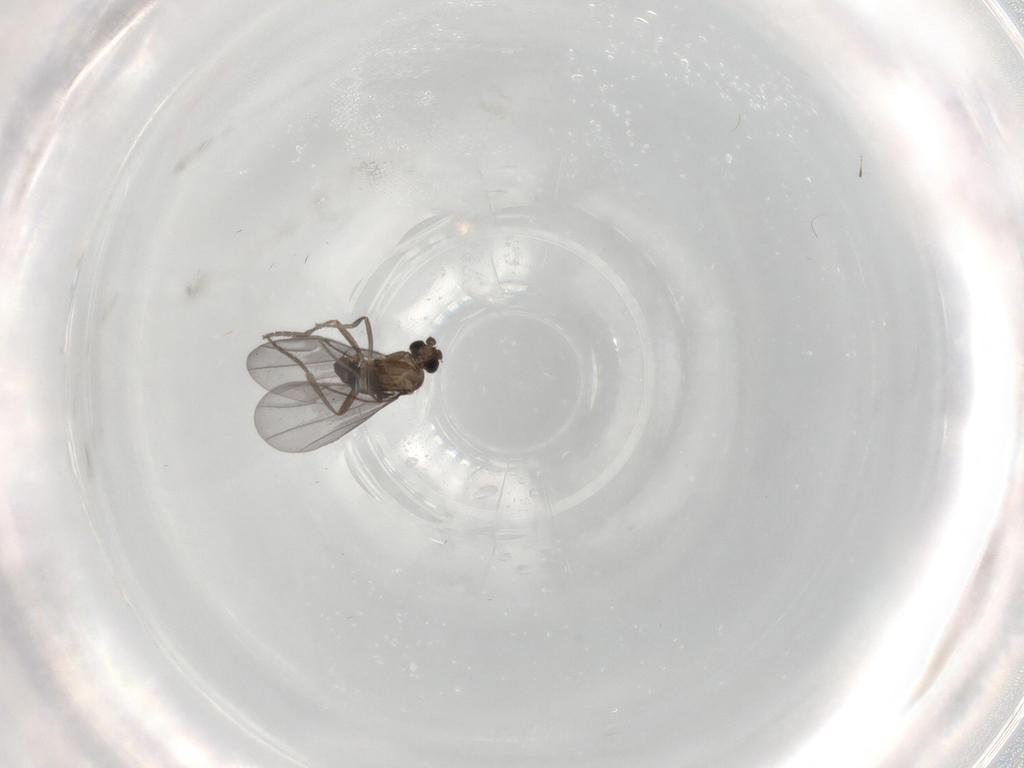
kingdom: Animalia
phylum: Arthropoda
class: Insecta
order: Diptera
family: Phoridae
